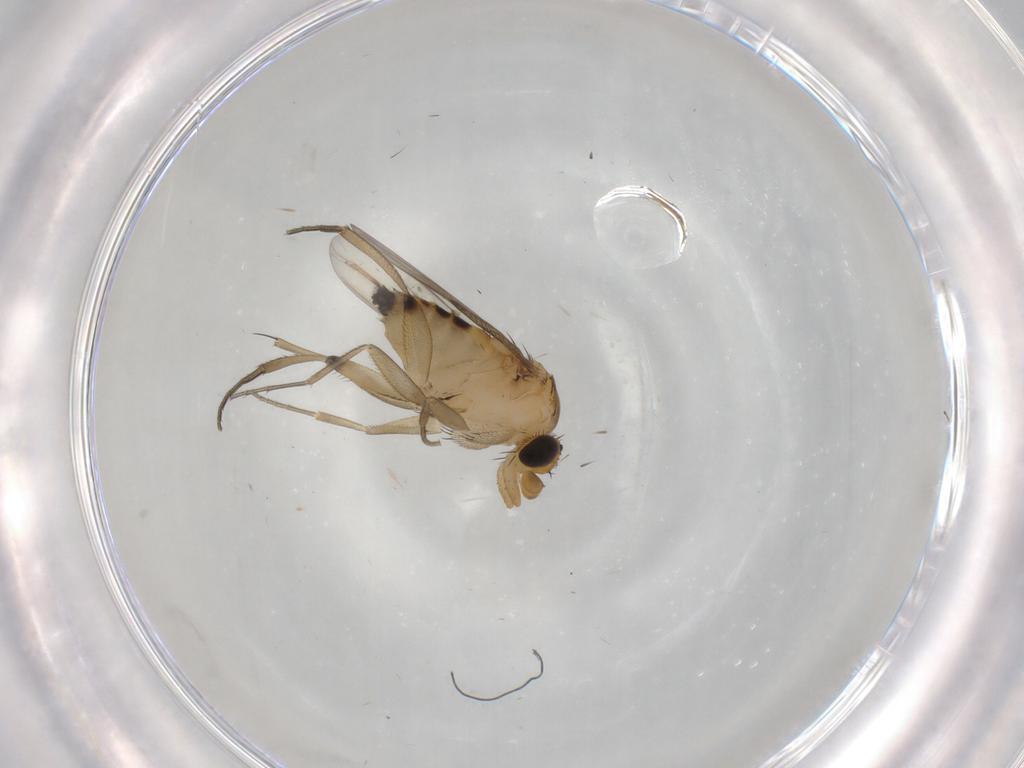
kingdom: Animalia
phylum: Arthropoda
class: Insecta
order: Diptera
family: Phoridae
